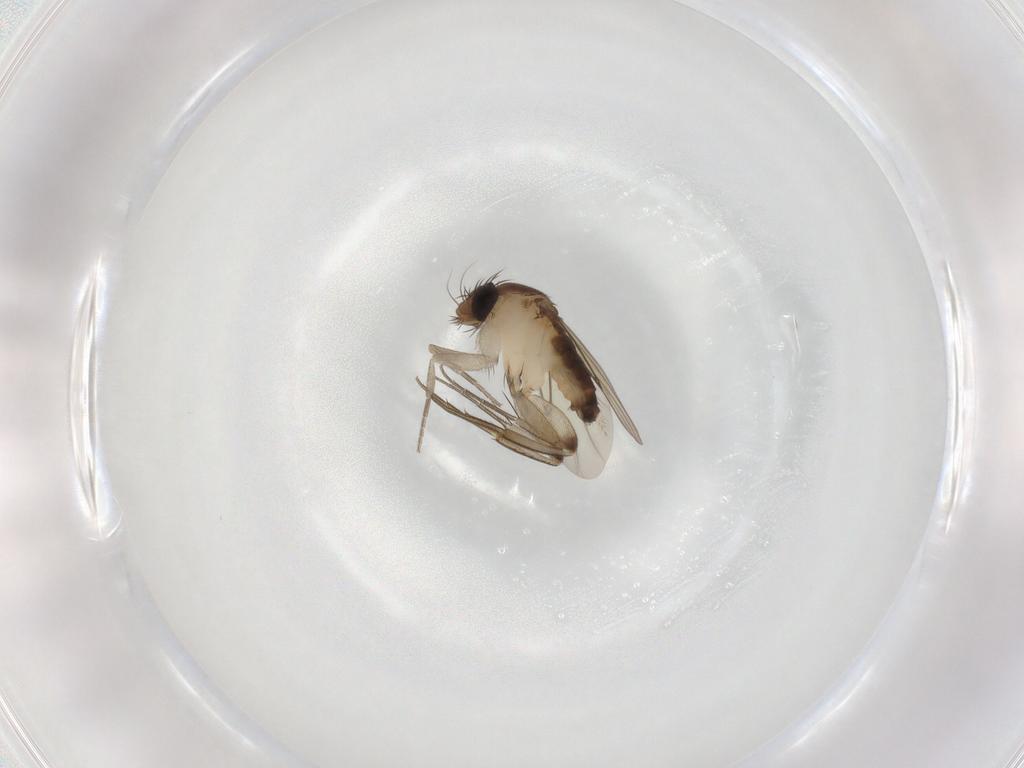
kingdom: Animalia
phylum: Arthropoda
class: Insecta
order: Diptera
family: Phoridae
